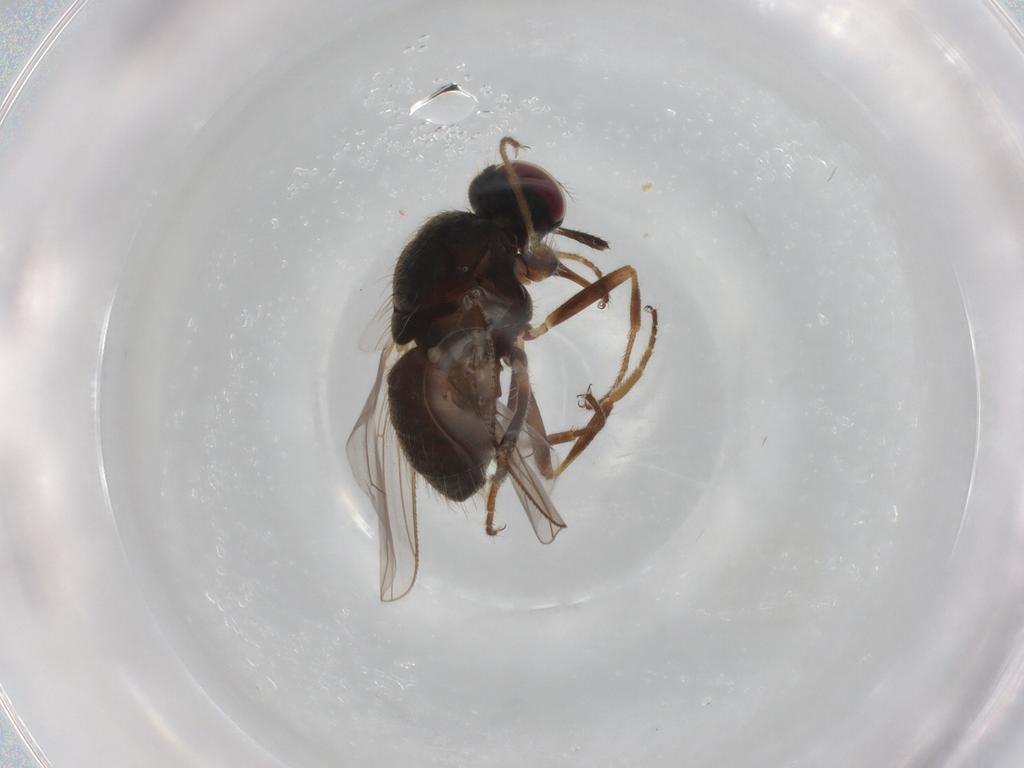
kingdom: Animalia
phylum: Arthropoda
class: Insecta
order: Diptera
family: Muscidae
